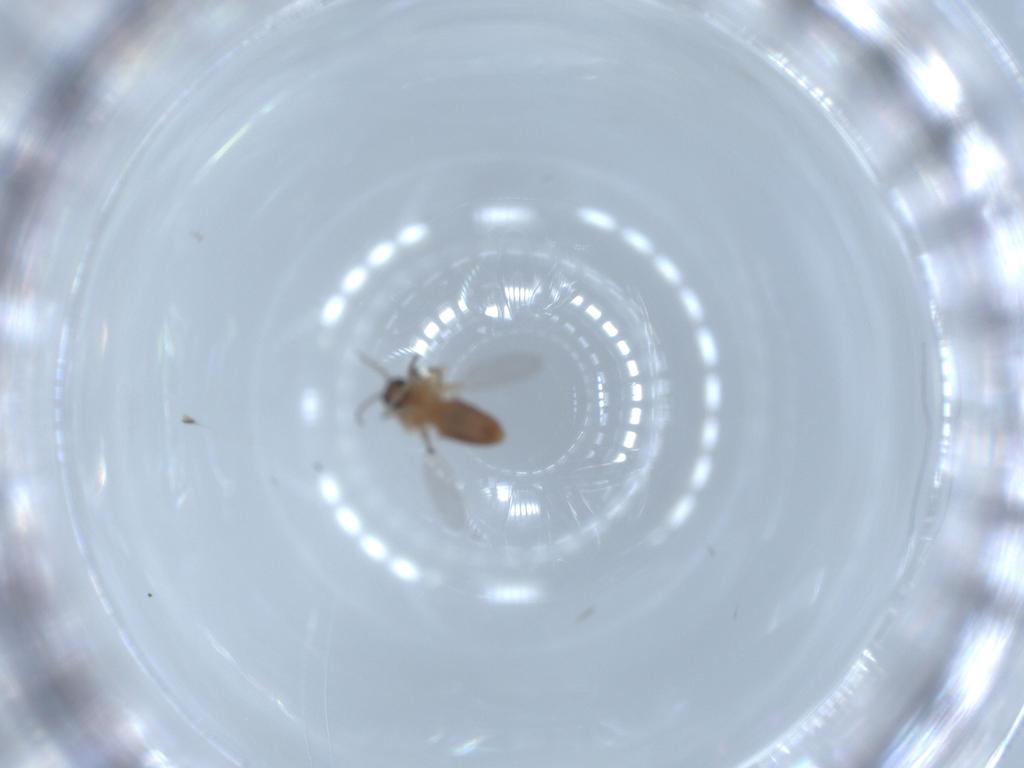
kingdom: Animalia
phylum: Arthropoda
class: Insecta
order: Diptera
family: Ceratopogonidae
